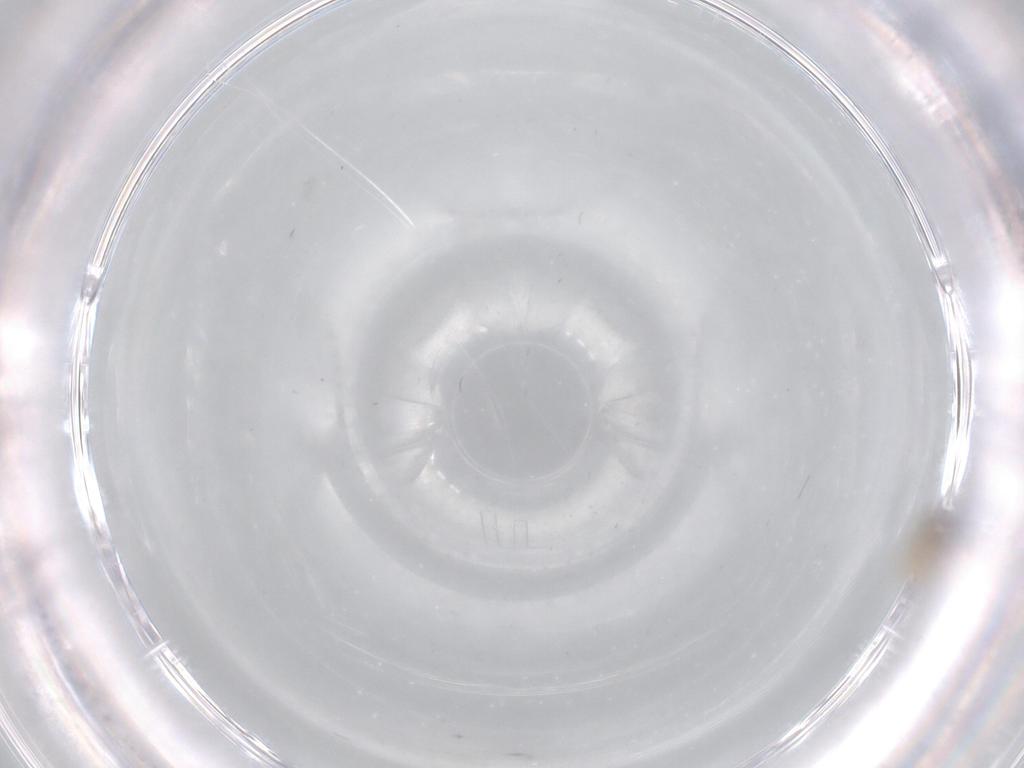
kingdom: Animalia
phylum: Arthropoda
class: Insecta
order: Diptera
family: Cecidomyiidae
